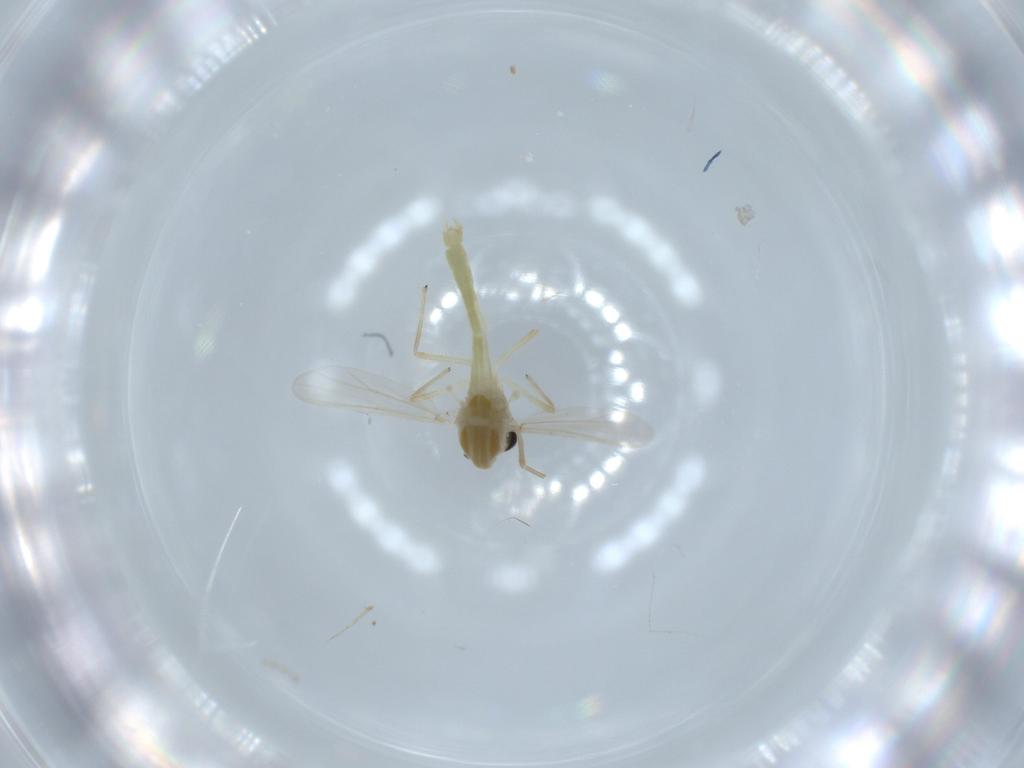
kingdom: Animalia
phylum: Arthropoda
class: Insecta
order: Diptera
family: Chironomidae
